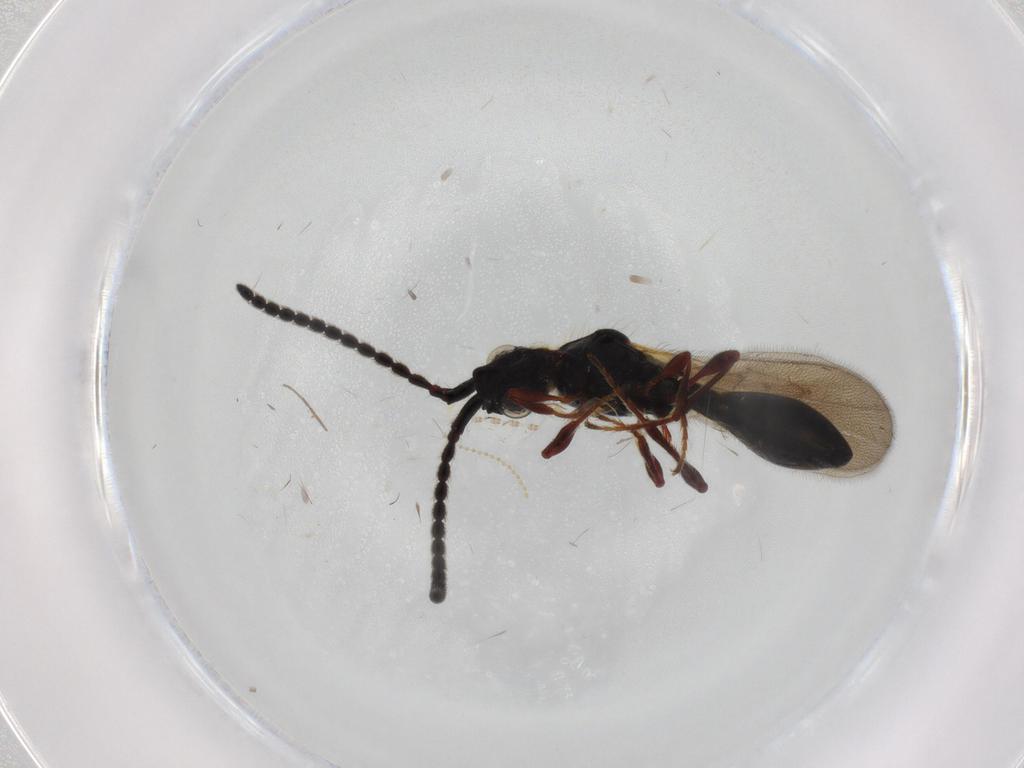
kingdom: Animalia
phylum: Arthropoda
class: Insecta
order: Hymenoptera
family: Diapriidae
